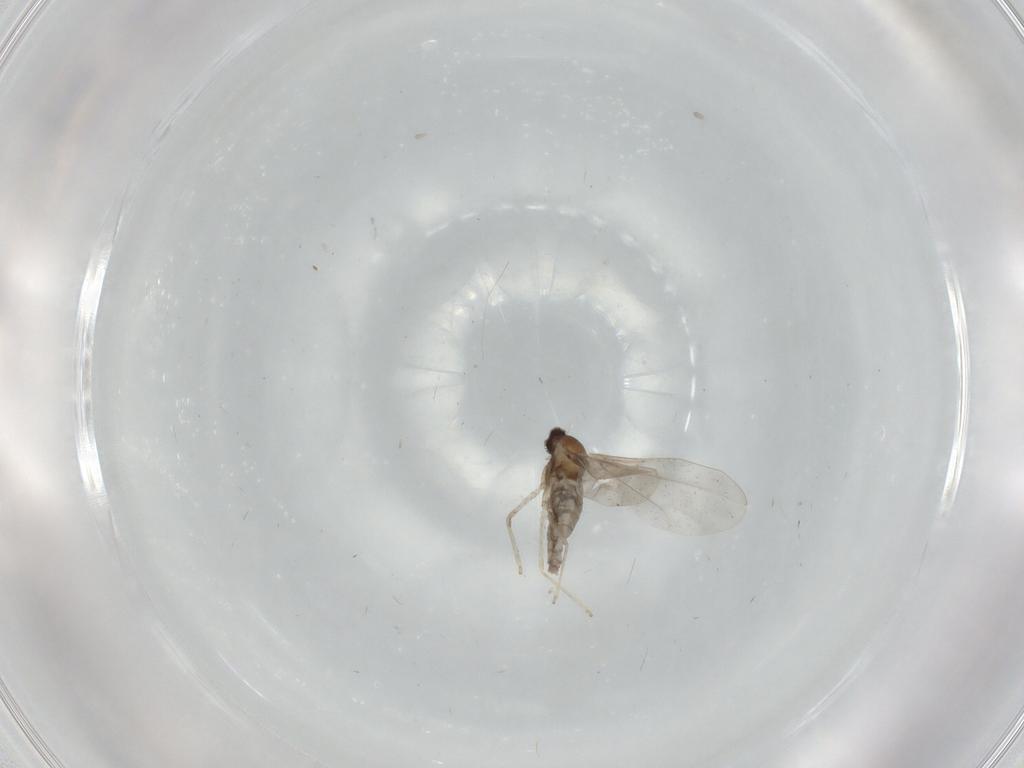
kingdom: Animalia
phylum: Arthropoda
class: Insecta
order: Diptera
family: Cecidomyiidae
